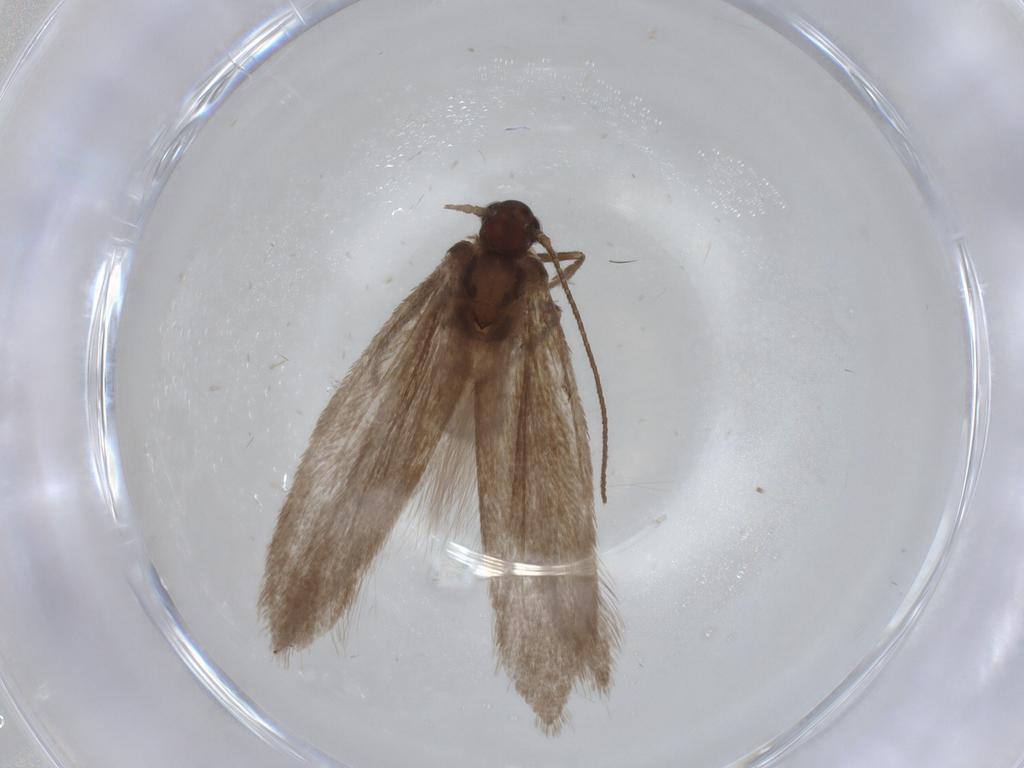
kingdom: Animalia
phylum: Arthropoda
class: Insecta
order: Lepidoptera
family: Limacodidae
